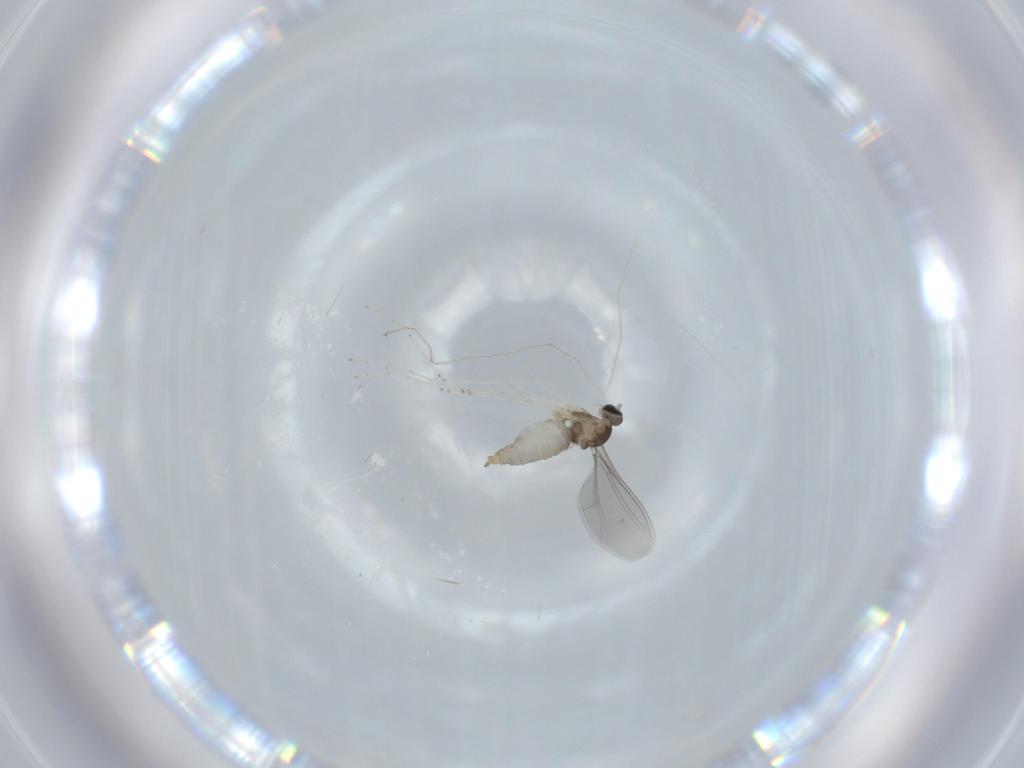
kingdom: Animalia
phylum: Arthropoda
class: Insecta
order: Diptera
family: Cecidomyiidae
